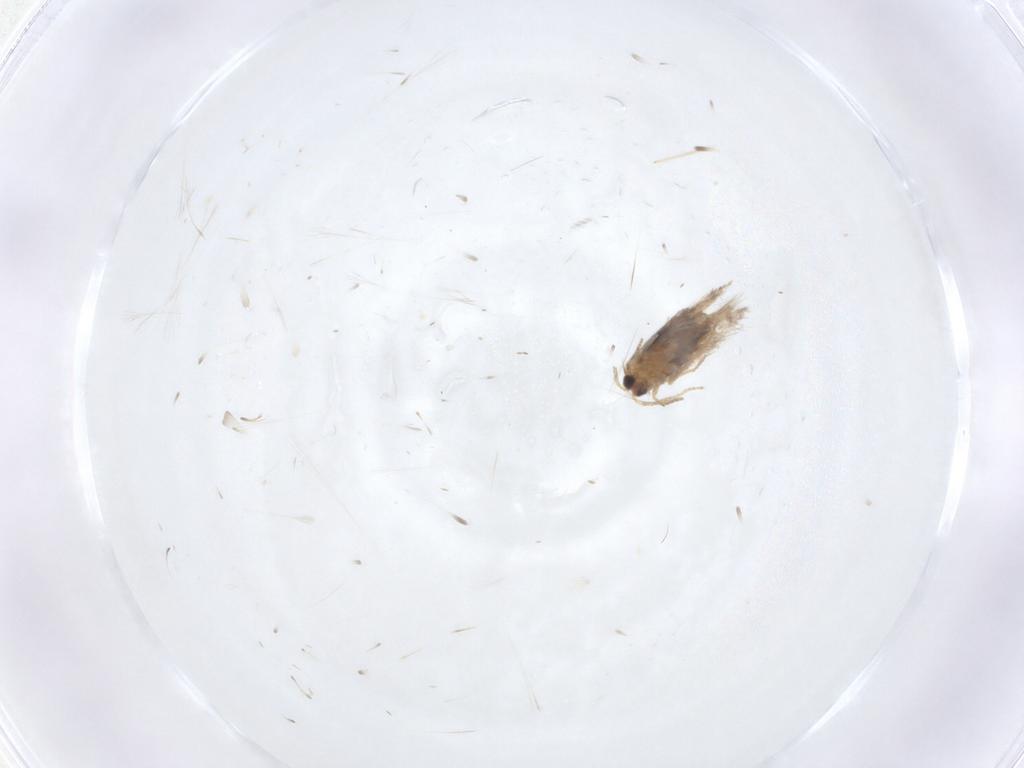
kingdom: Animalia
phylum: Arthropoda
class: Insecta
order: Lepidoptera
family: Nepticulidae
